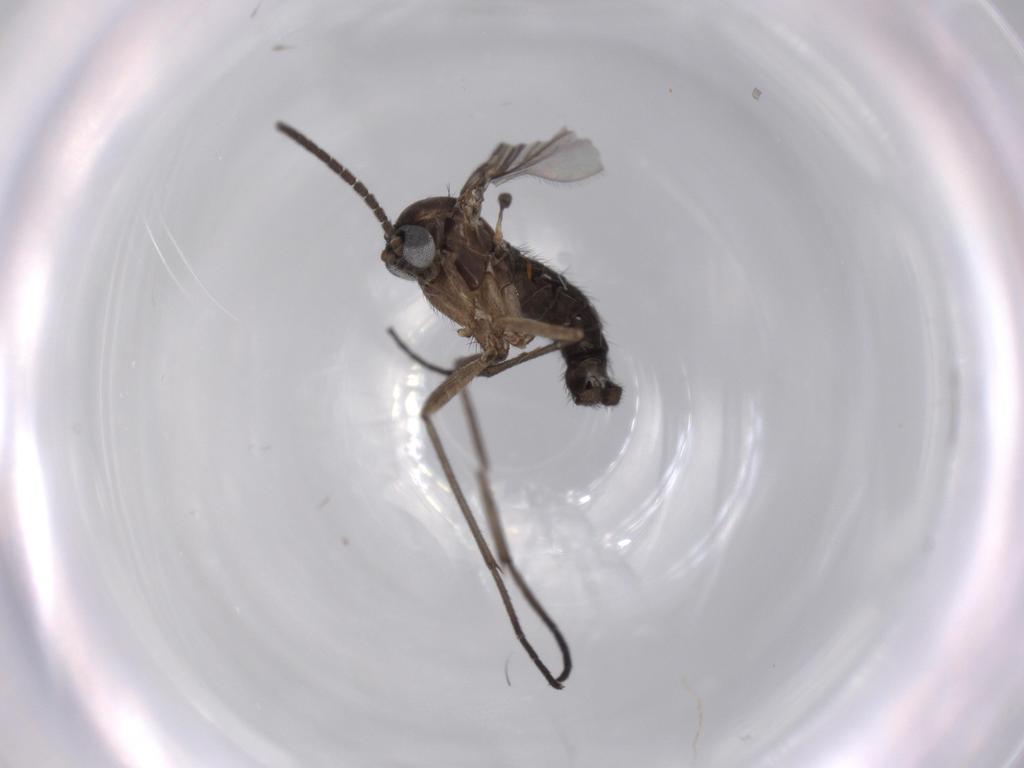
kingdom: Animalia
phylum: Arthropoda
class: Insecta
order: Diptera
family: Sciaridae
